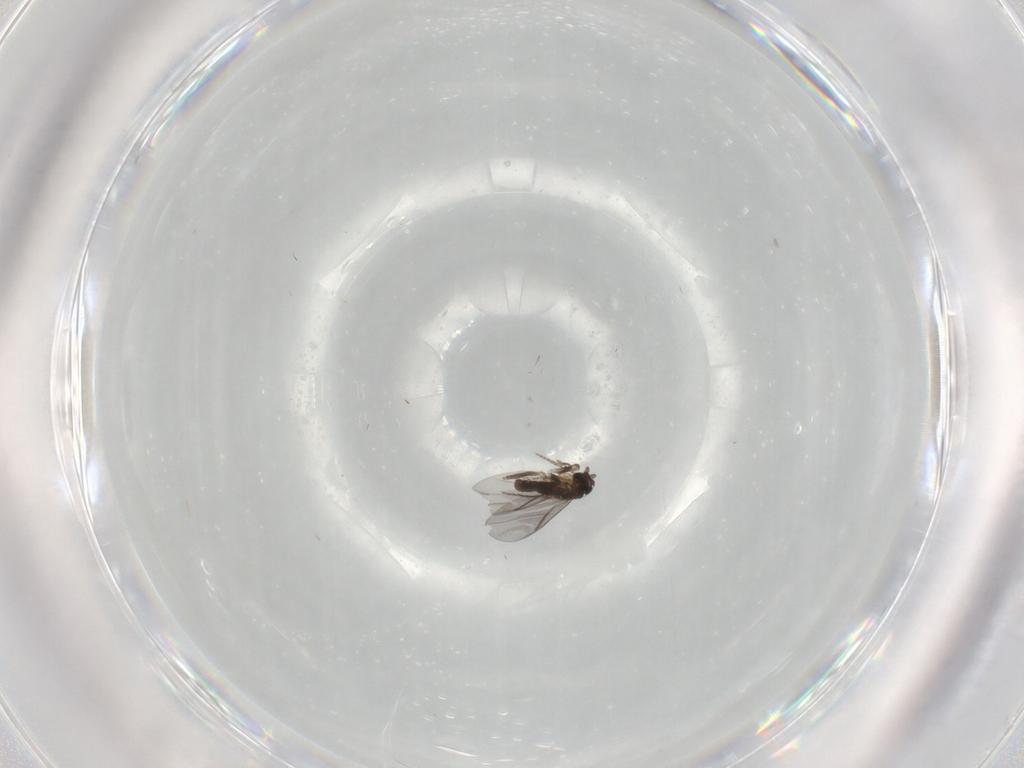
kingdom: Animalia
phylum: Arthropoda
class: Insecta
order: Diptera
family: Phoridae
